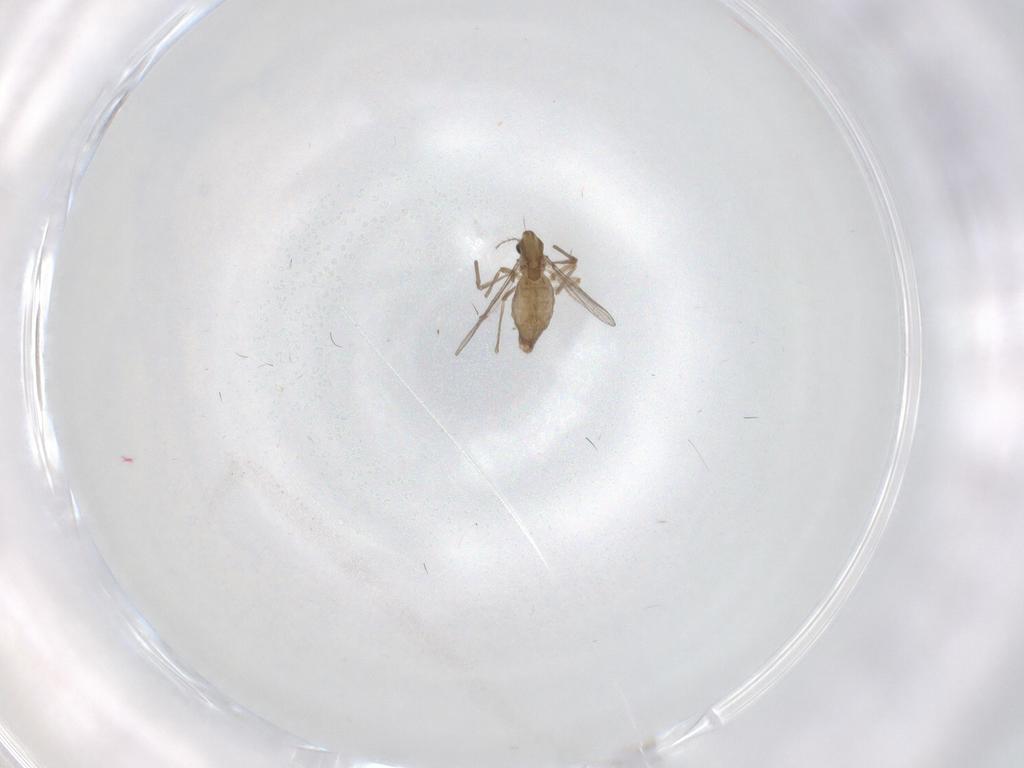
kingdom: Animalia
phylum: Arthropoda
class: Insecta
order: Diptera
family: Chironomidae
